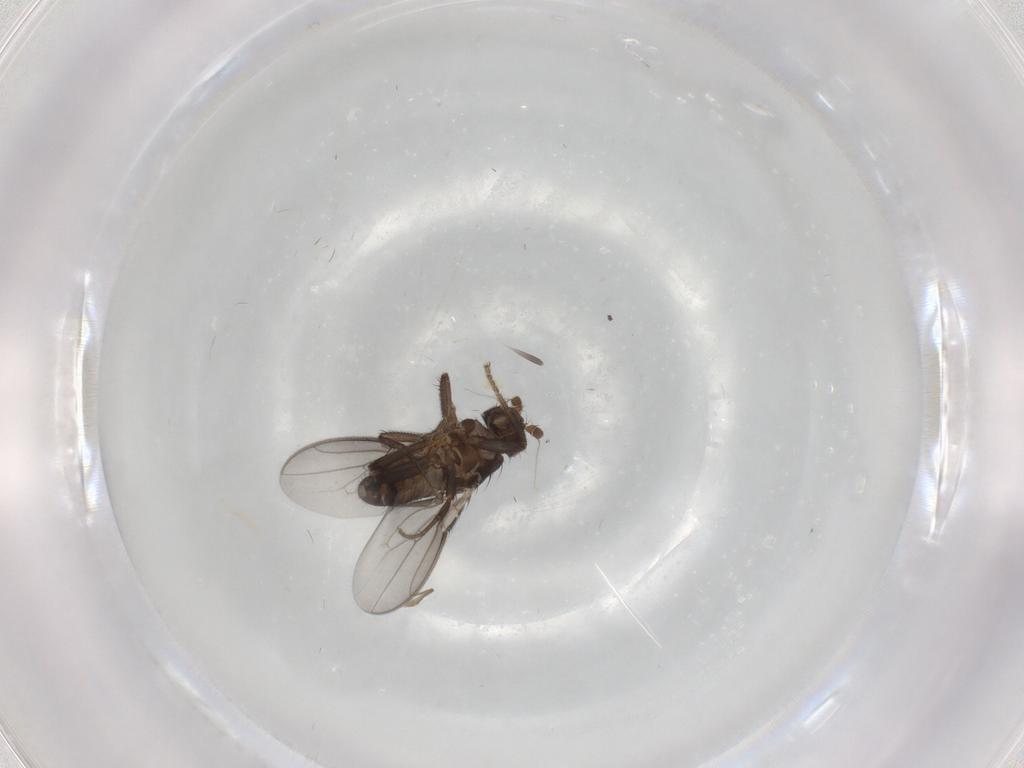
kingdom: Animalia
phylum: Arthropoda
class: Insecta
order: Diptera
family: Sphaeroceridae
